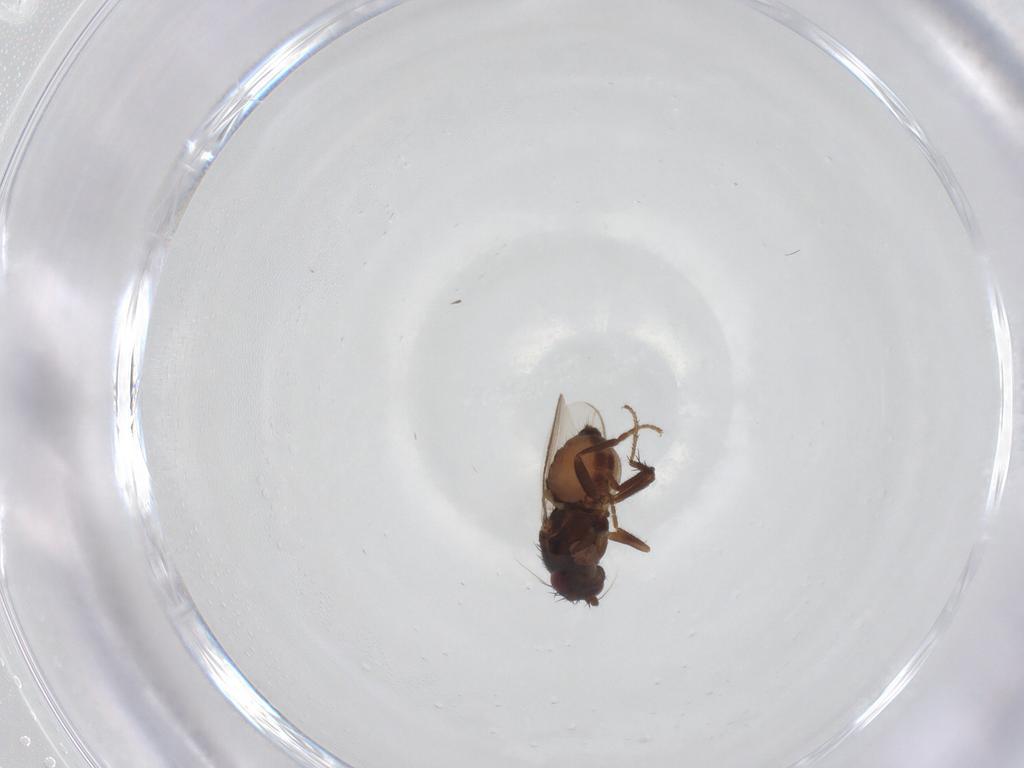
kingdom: Animalia
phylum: Arthropoda
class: Insecta
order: Diptera
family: Sphaeroceridae
